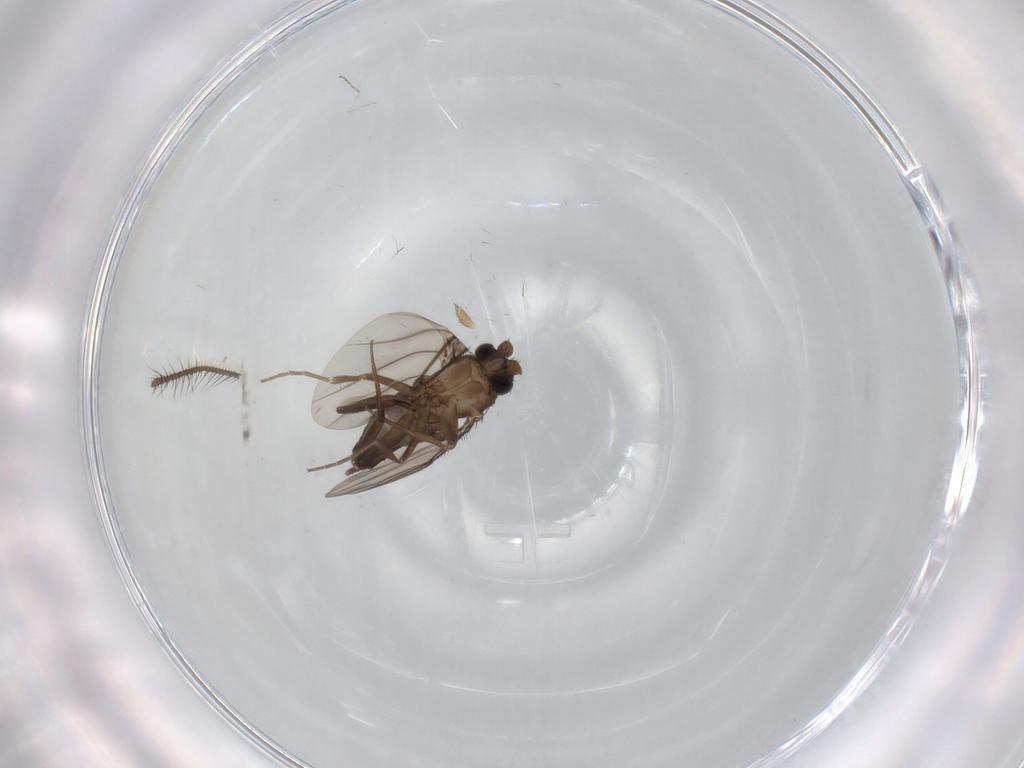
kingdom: Animalia
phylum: Arthropoda
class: Insecta
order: Diptera
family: Phoridae
